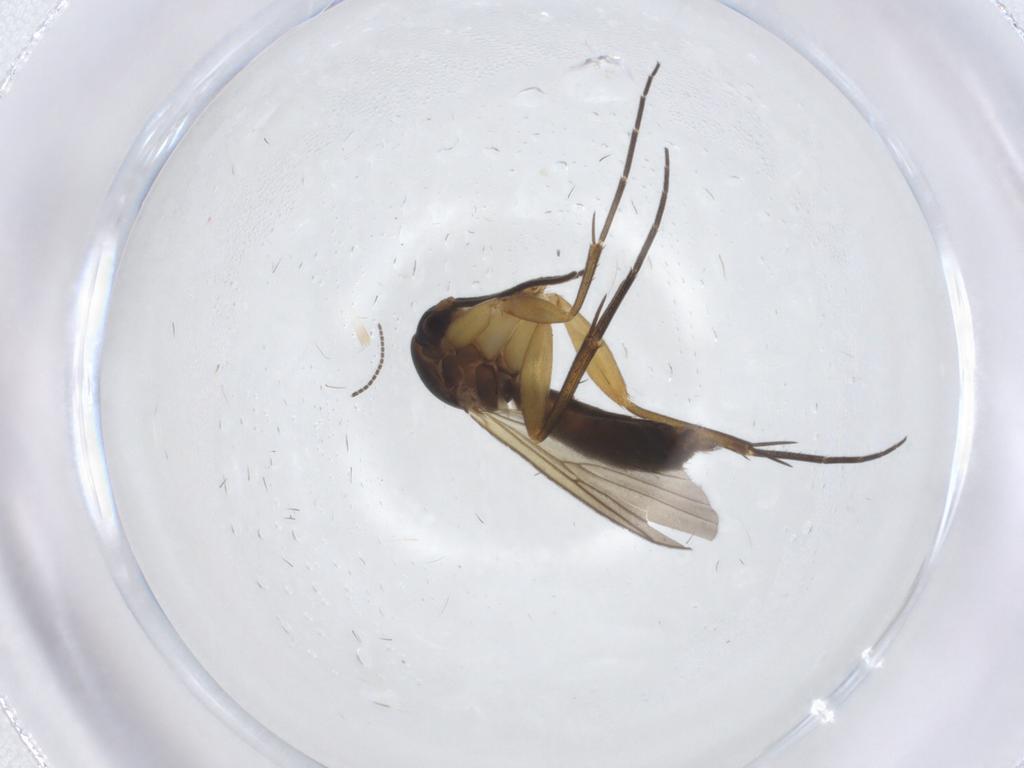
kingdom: Animalia
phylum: Arthropoda
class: Insecta
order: Diptera
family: Mycetophilidae
